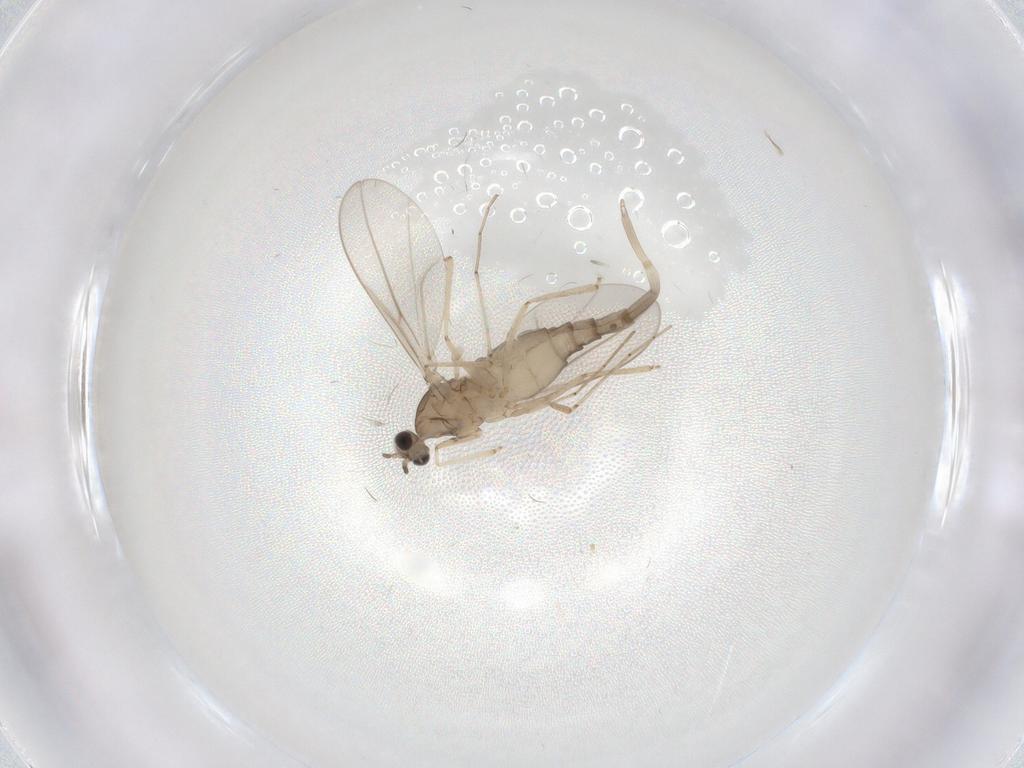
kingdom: Animalia
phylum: Arthropoda
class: Insecta
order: Diptera
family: Cecidomyiidae
